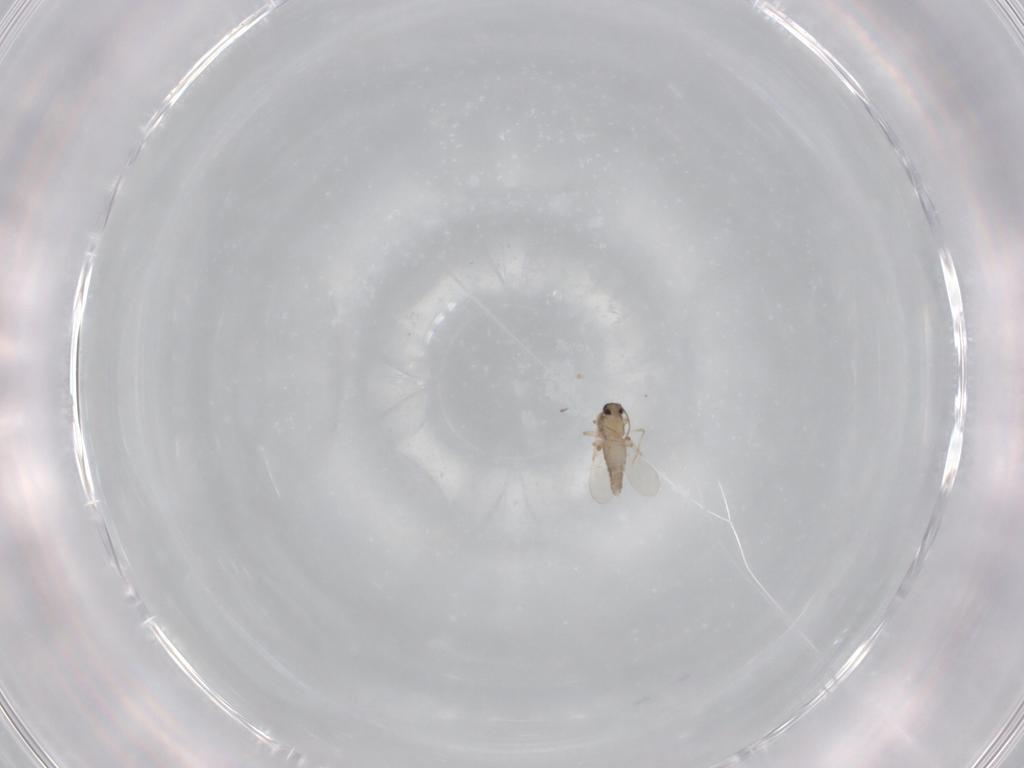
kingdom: Animalia
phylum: Arthropoda
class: Insecta
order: Diptera
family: Ceratopogonidae
